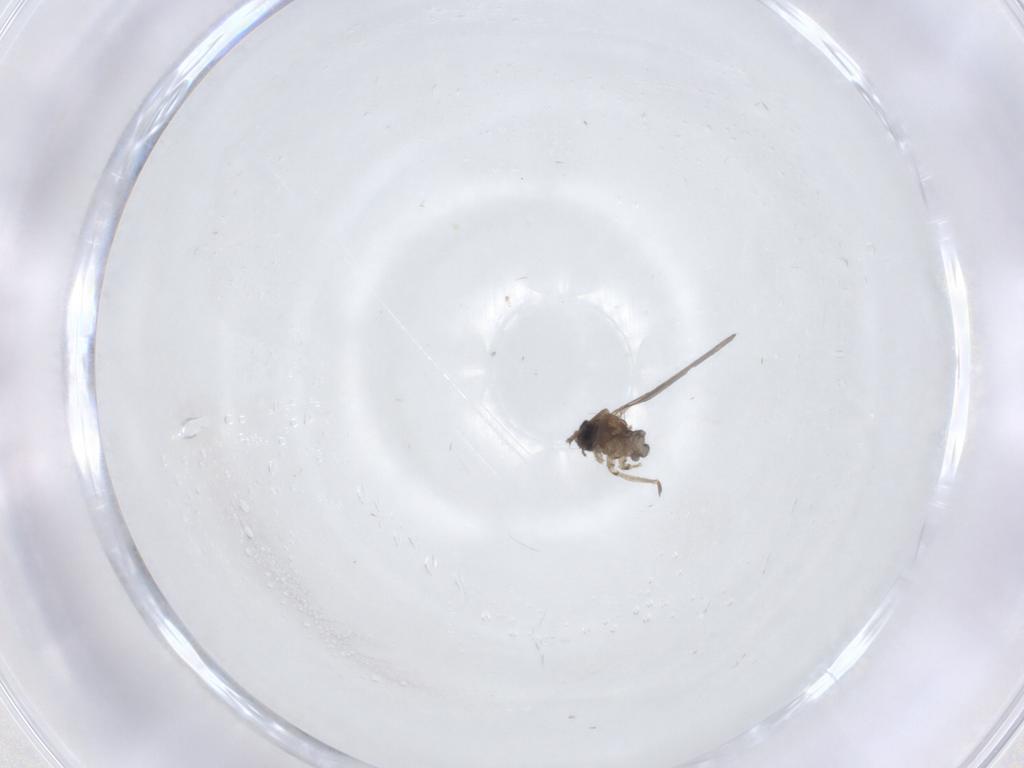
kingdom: Animalia
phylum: Arthropoda
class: Insecta
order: Diptera
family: Sciaridae
